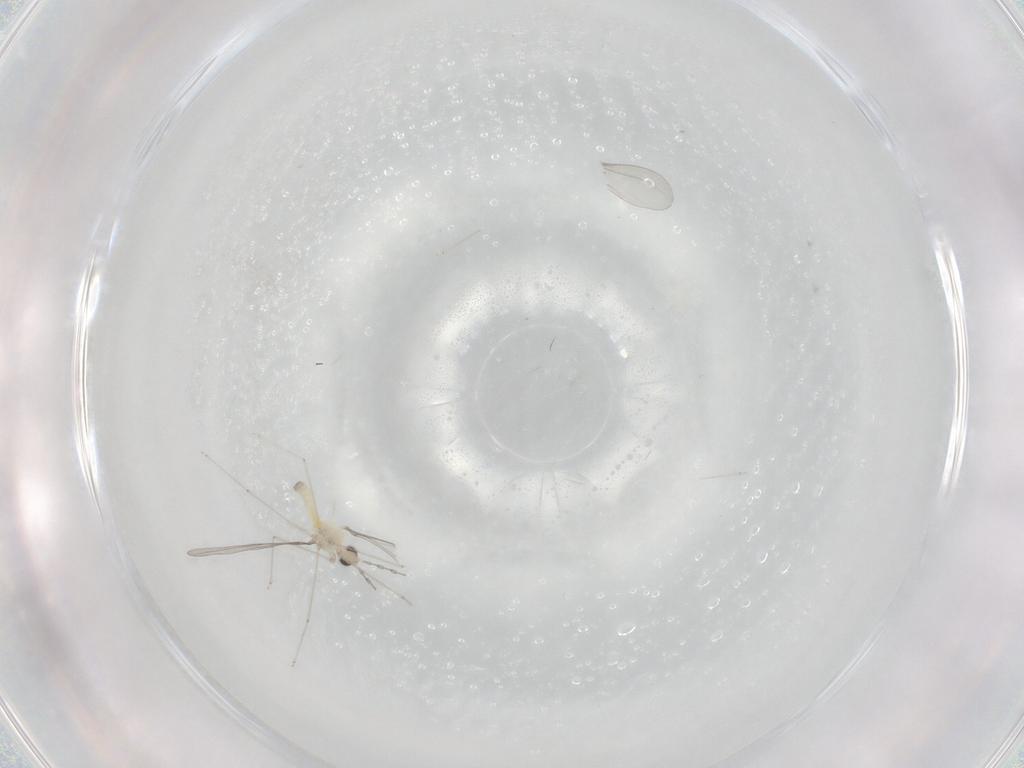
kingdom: Animalia
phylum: Arthropoda
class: Insecta
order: Diptera
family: Cecidomyiidae
